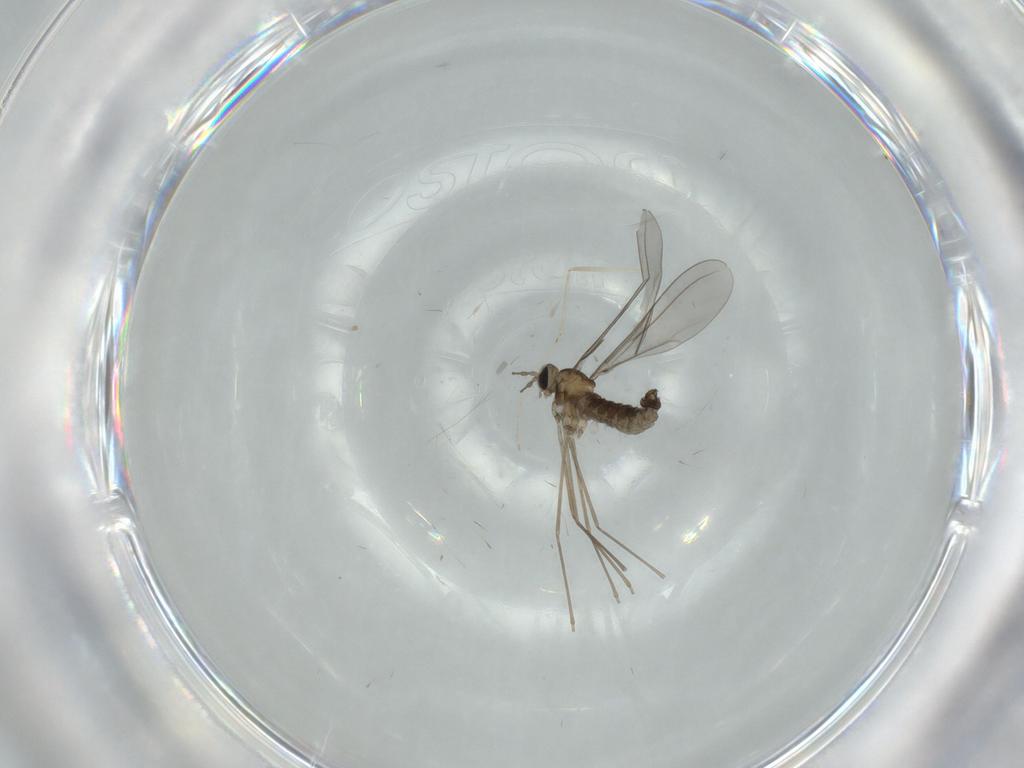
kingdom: Animalia
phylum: Arthropoda
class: Insecta
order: Diptera
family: Cecidomyiidae
